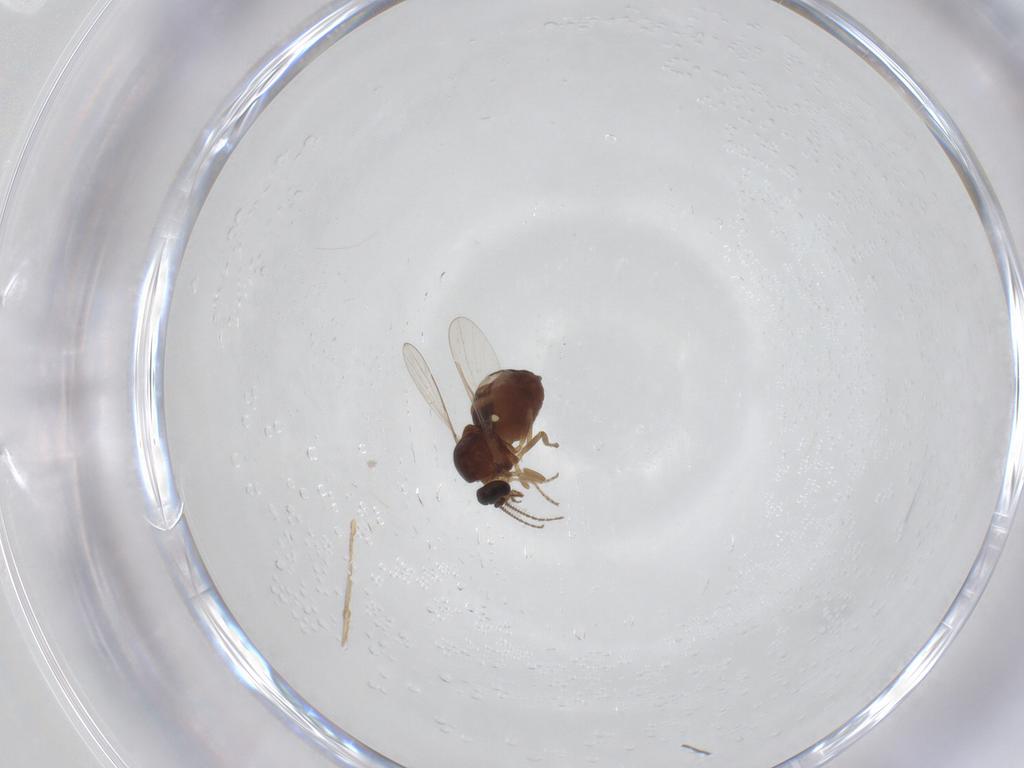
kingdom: Animalia
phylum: Arthropoda
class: Insecta
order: Diptera
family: Ceratopogonidae
